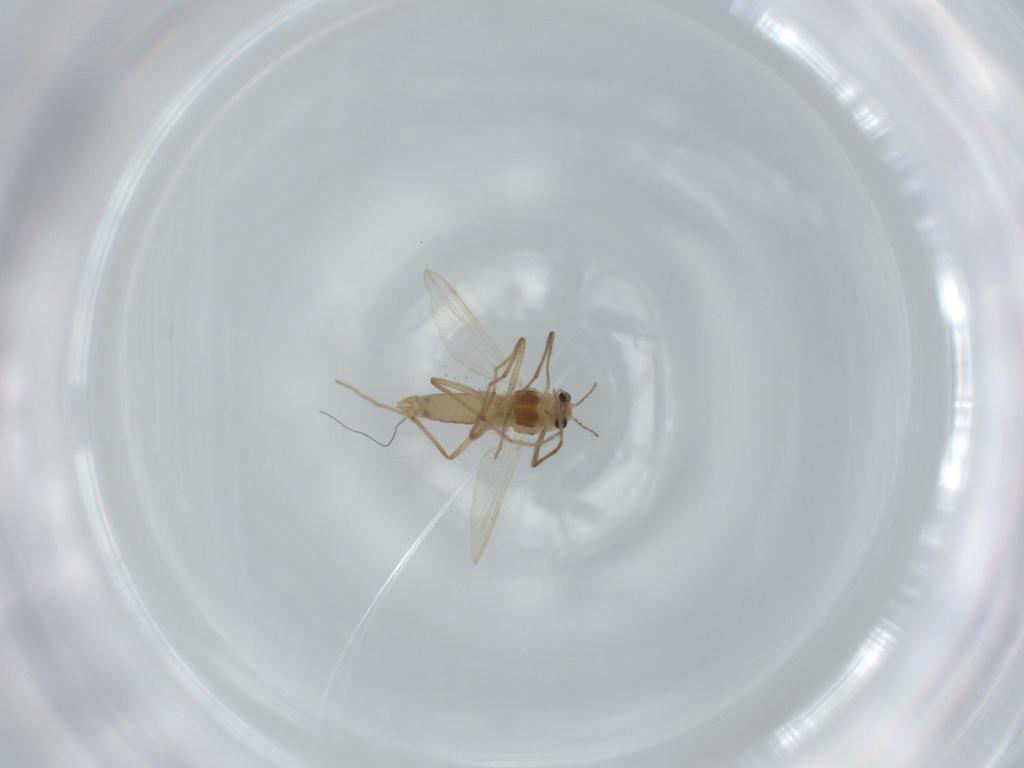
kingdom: Animalia
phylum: Arthropoda
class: Insecta
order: Diptera
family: Chironomidae
